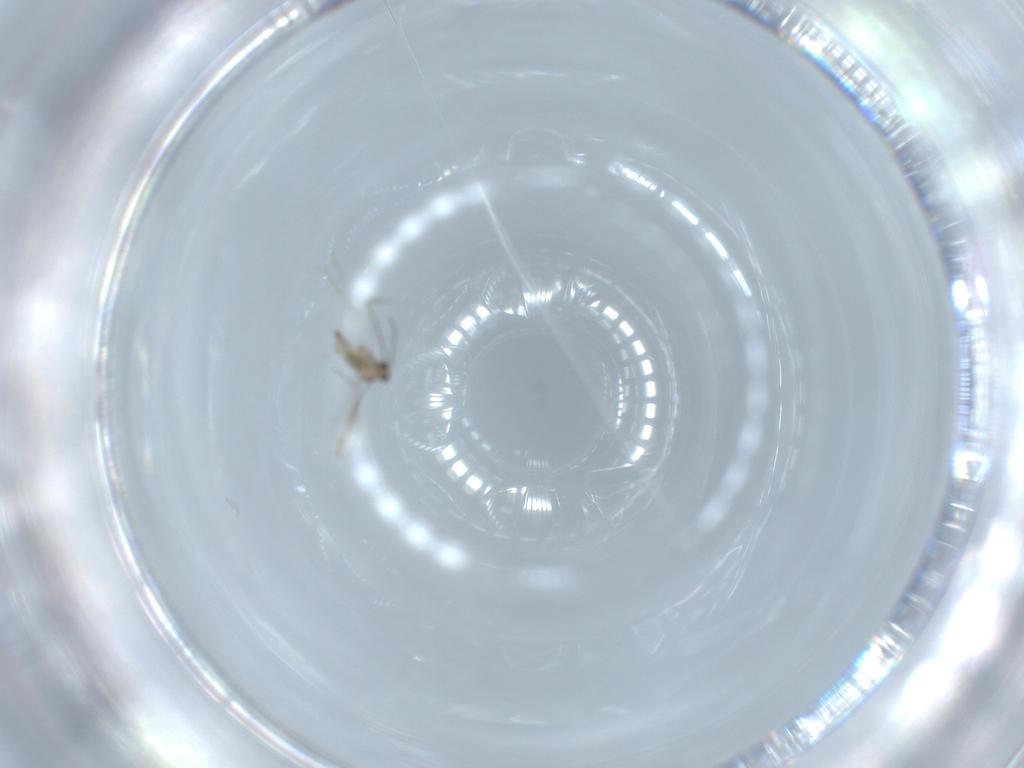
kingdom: Animalia
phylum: Arthropoda
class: Insecta
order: Diptera
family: Cecidomyiidae
